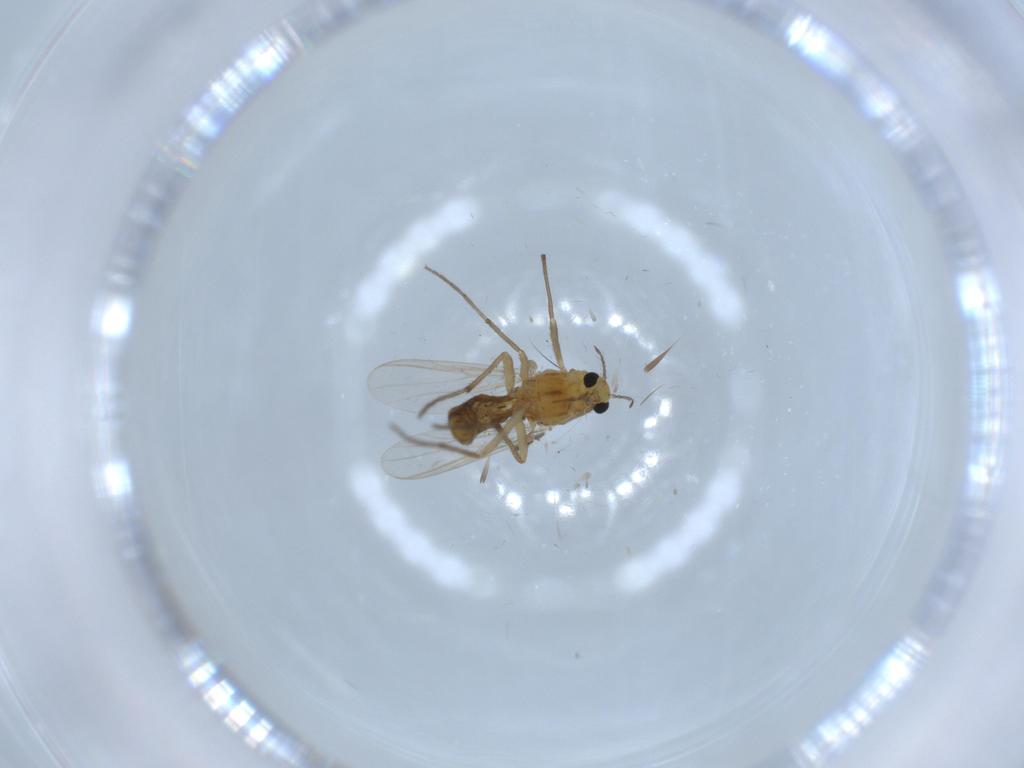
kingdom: Animalia
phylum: Arthropoda
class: Insecta
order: Diptera
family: Chironomidae
